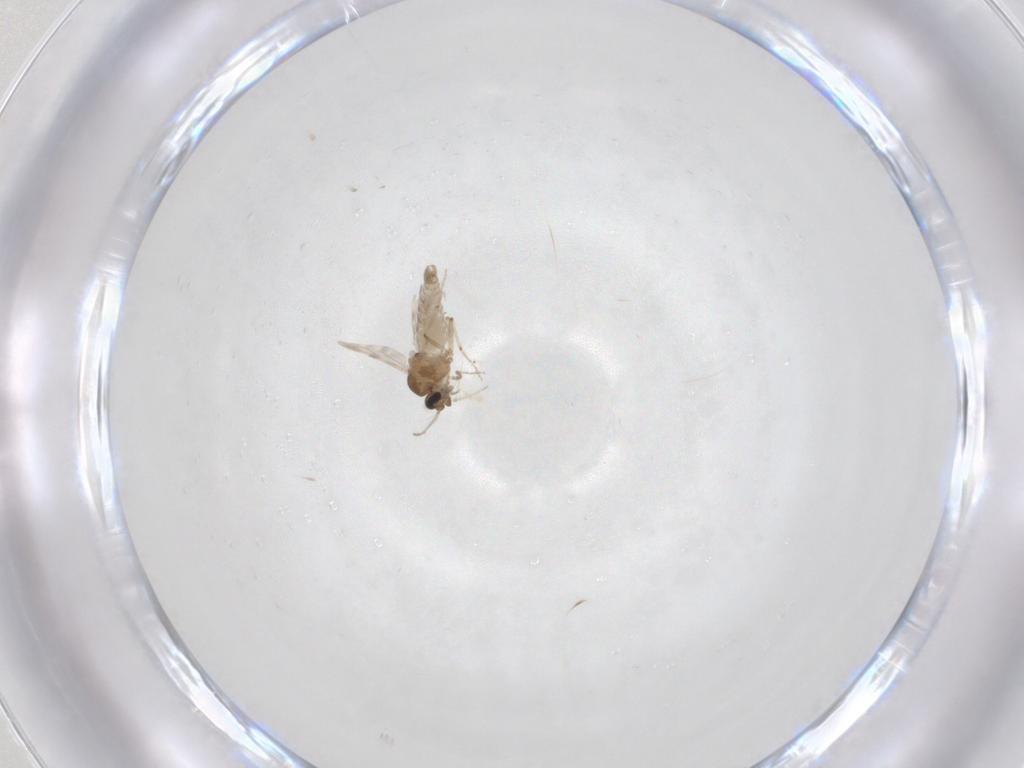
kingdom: Animalia
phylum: Arthropoda
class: Insecta
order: Diptera
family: Ceratopogonidae
